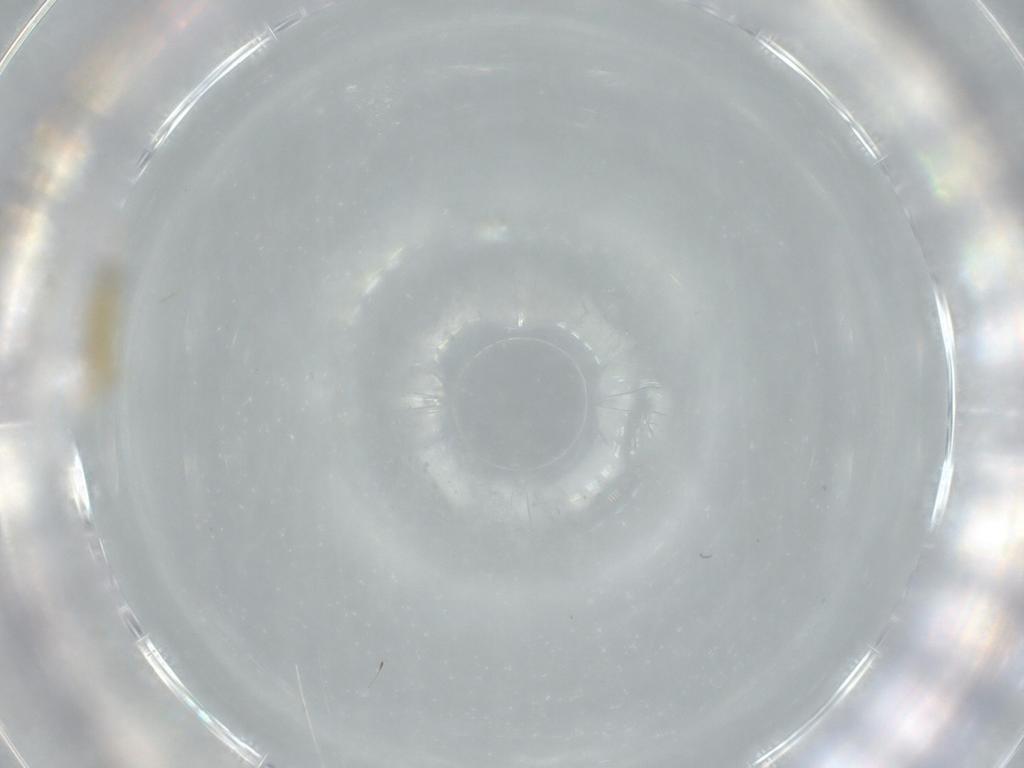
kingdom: Animalia
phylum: Arthropoda
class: Insecta
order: Diptera
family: Chironomidae
